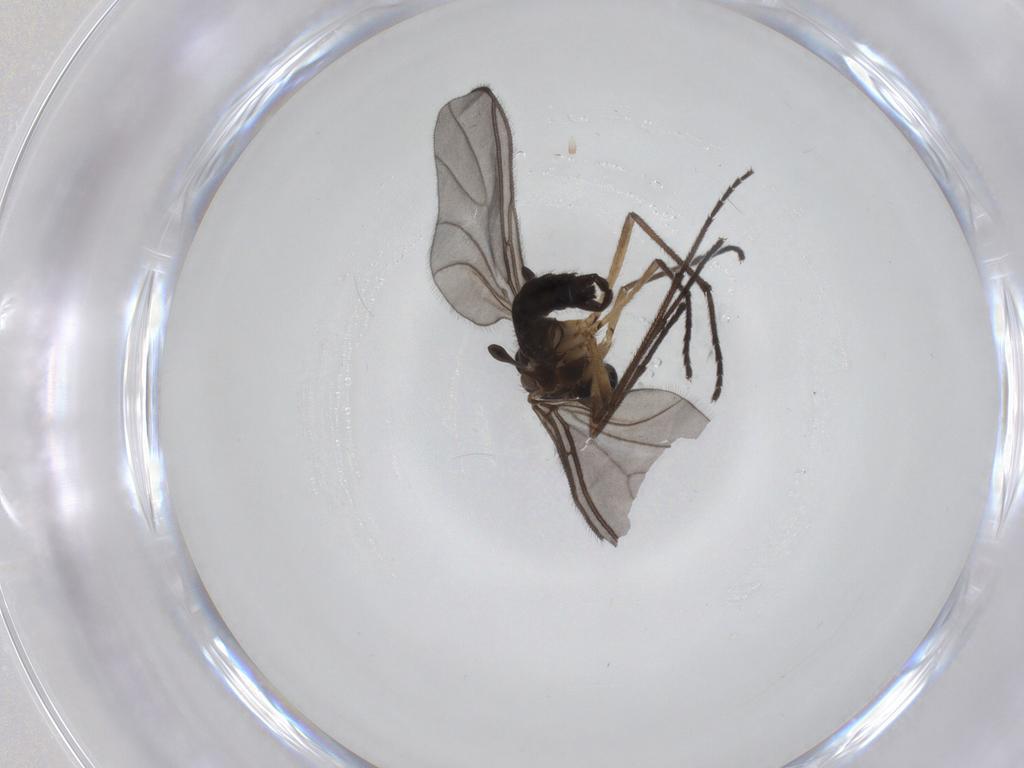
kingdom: Animalia
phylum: Arthropoda
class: Insecta
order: Diptera
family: Sciaridae
